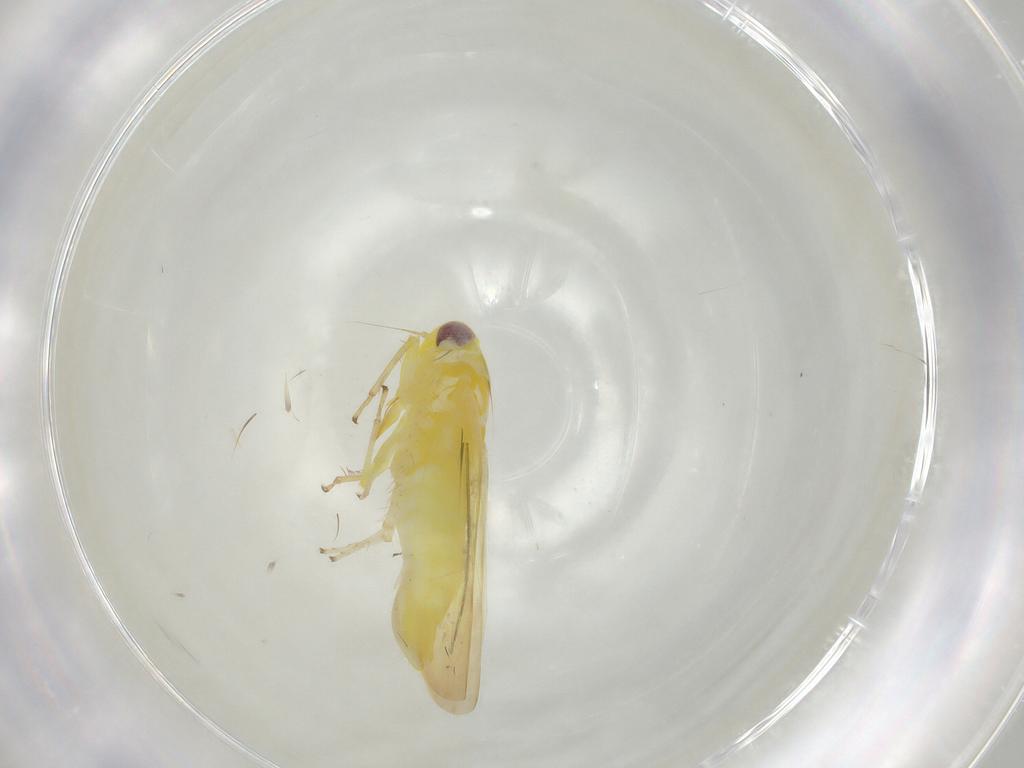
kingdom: Animalia
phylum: Arthropoda
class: Insecta
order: Hemiptera
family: Cicadellidae
